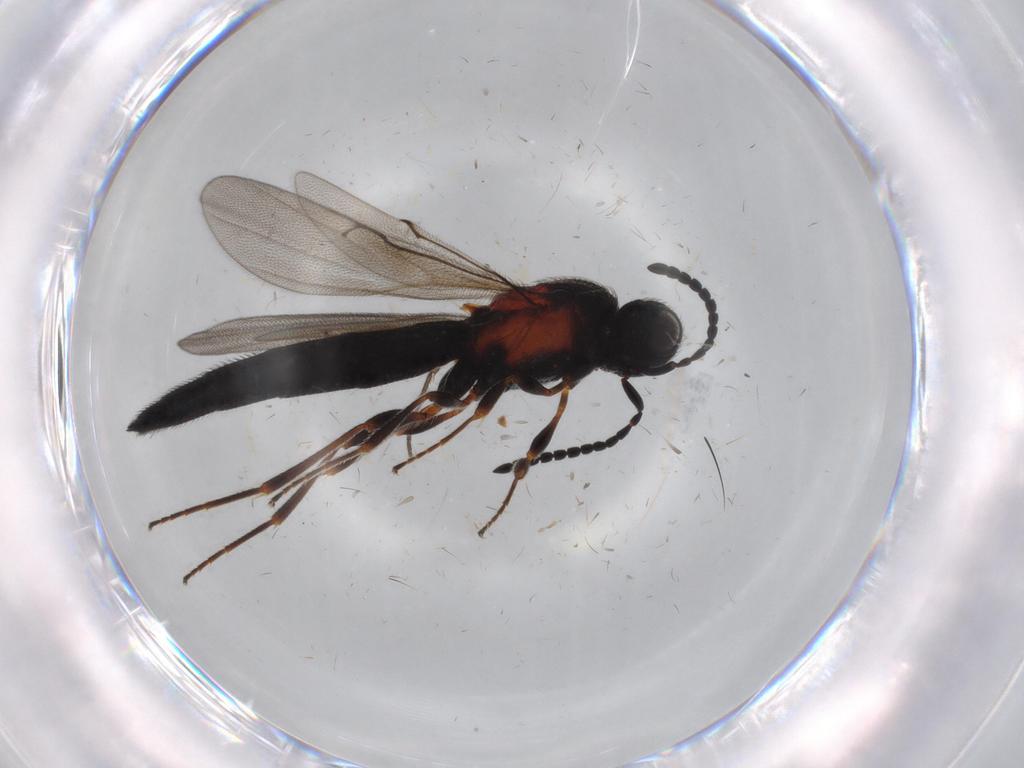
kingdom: Animalia
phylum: Arthropoda
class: Insecta
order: Hymenoptera
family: Scelionidae
